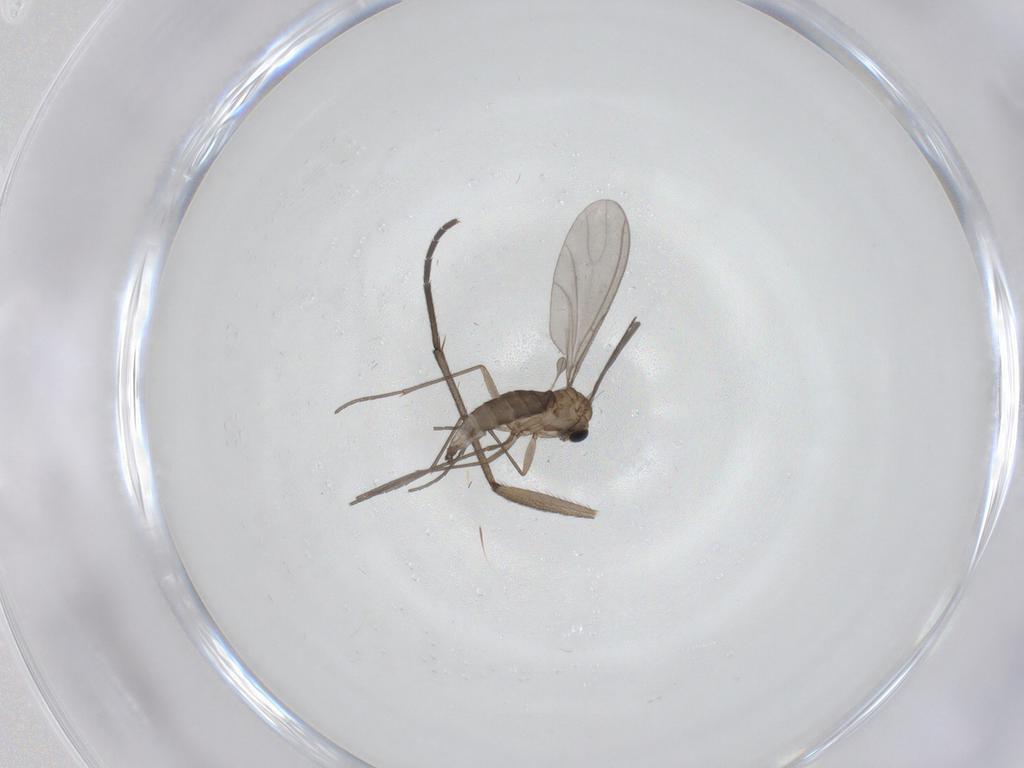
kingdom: Animalia
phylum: Arthropoda
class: Insecta
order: Diptera
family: Sciaridae
